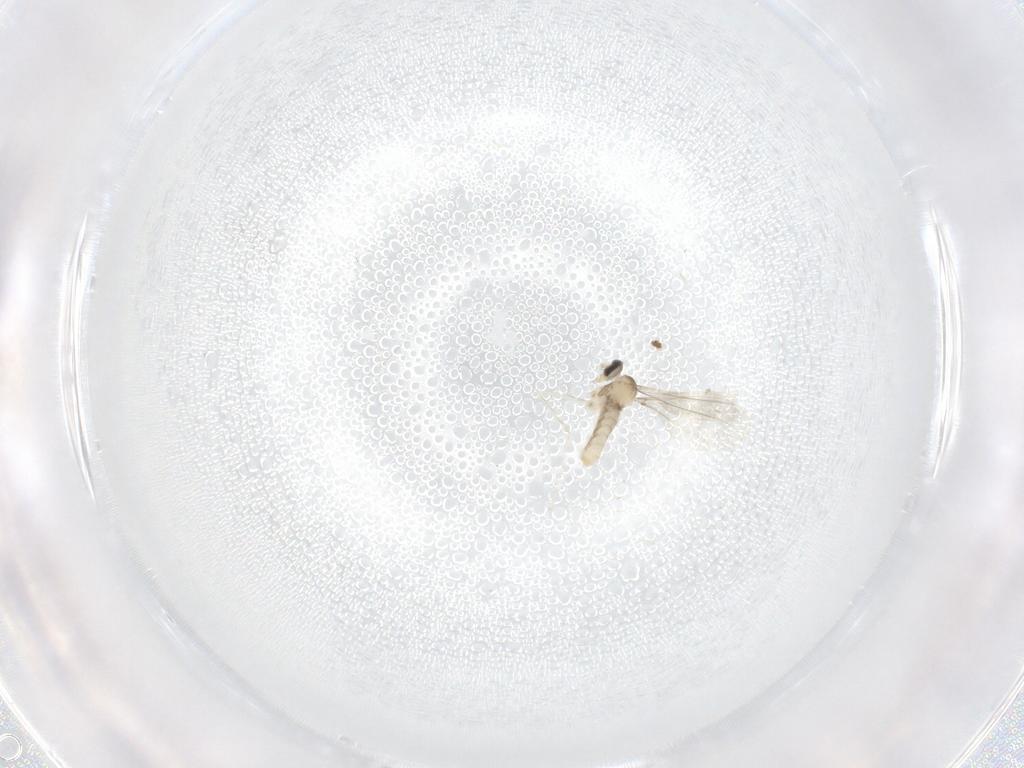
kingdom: Animalia
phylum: Arthropoda
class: Insecta
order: Diptera
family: Cecidomyiidae
